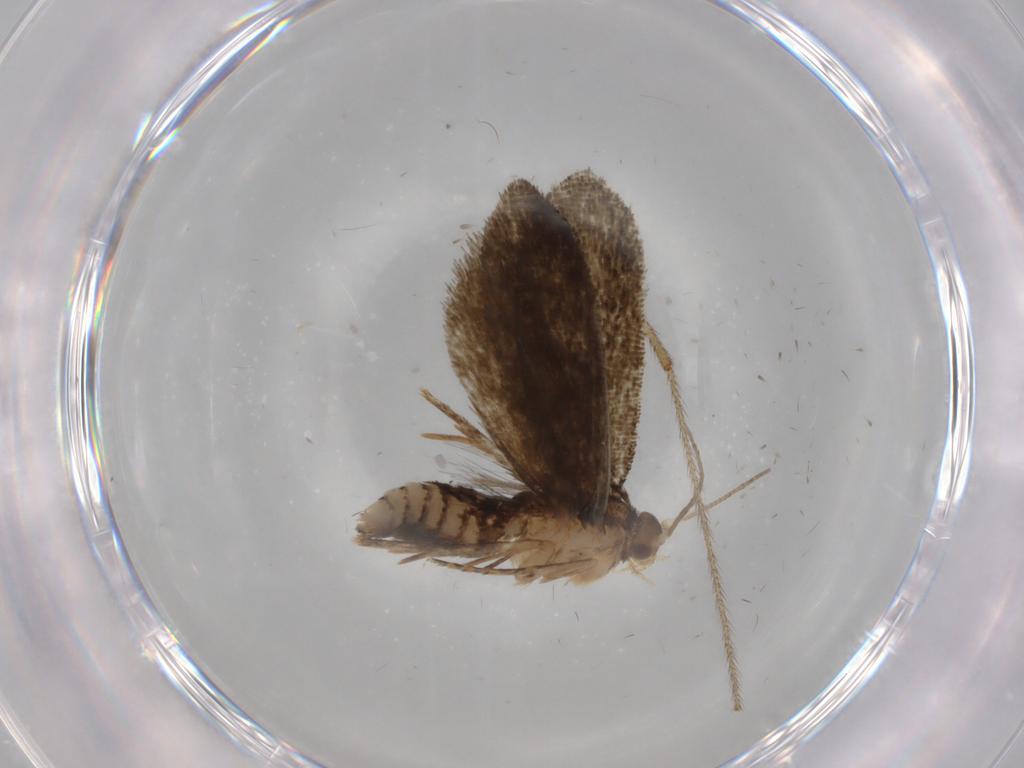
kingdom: Animalia
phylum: Arthropoda
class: Insecta
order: Lepidoptera
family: Crambidae
